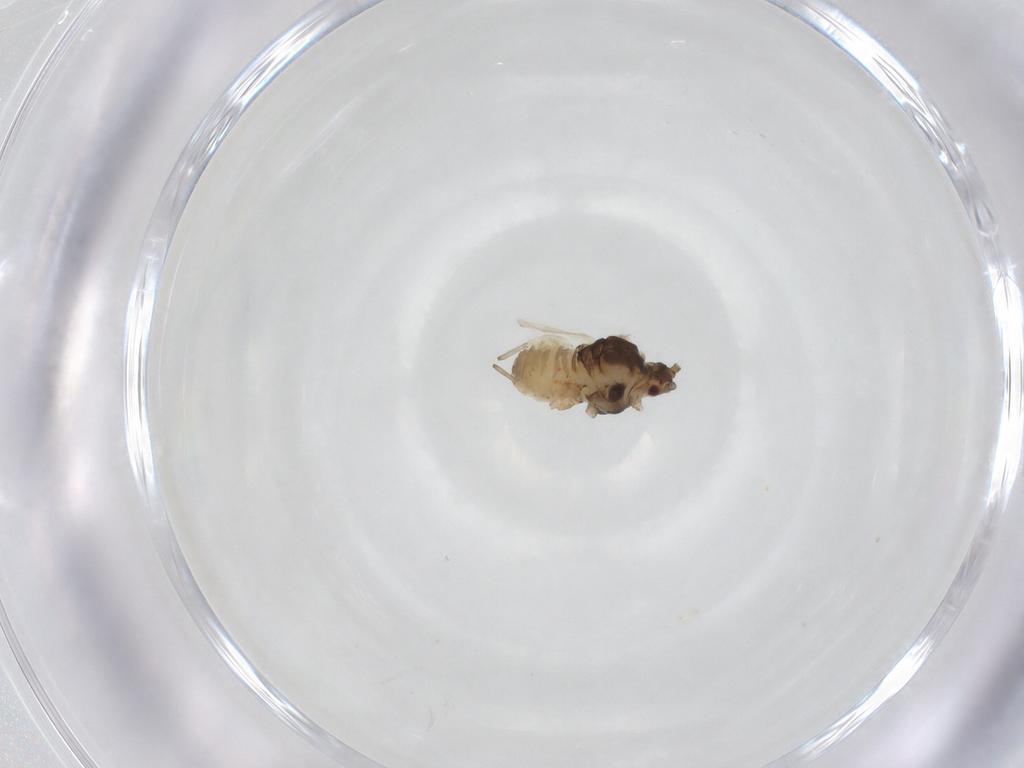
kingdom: Animalia
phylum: Arthropoda
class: Insecta
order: Hemiptera
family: Aphididae
